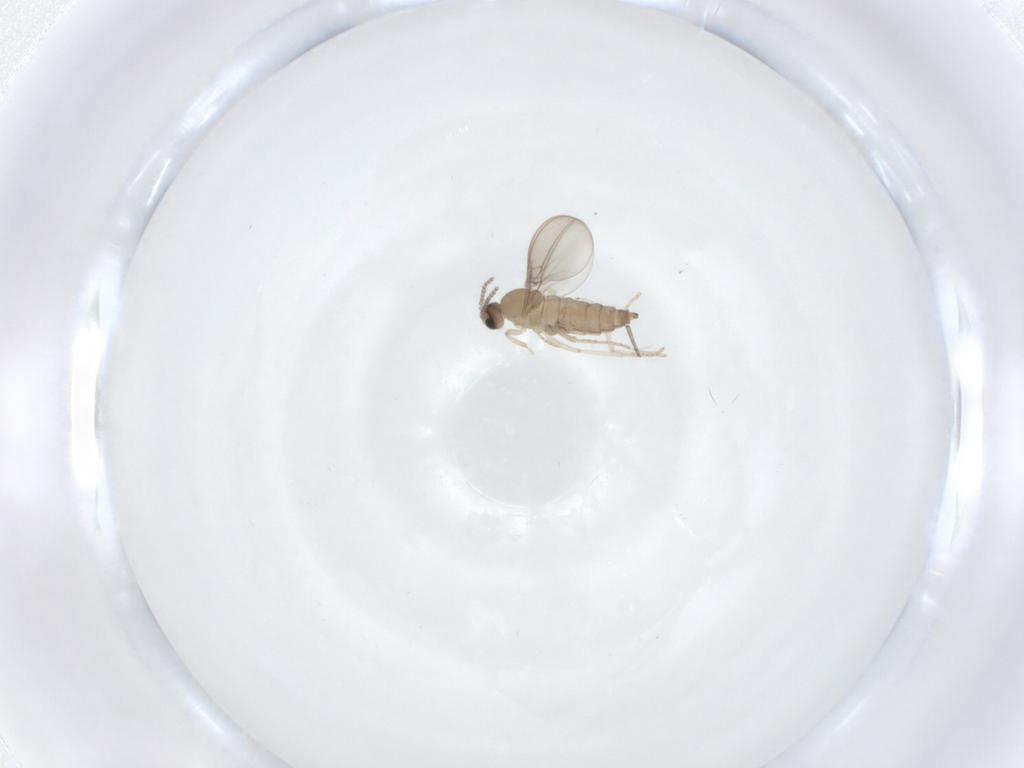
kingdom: Animalia
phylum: Arthropoda
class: Insecta
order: Diptera
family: Cecidomyiidae
